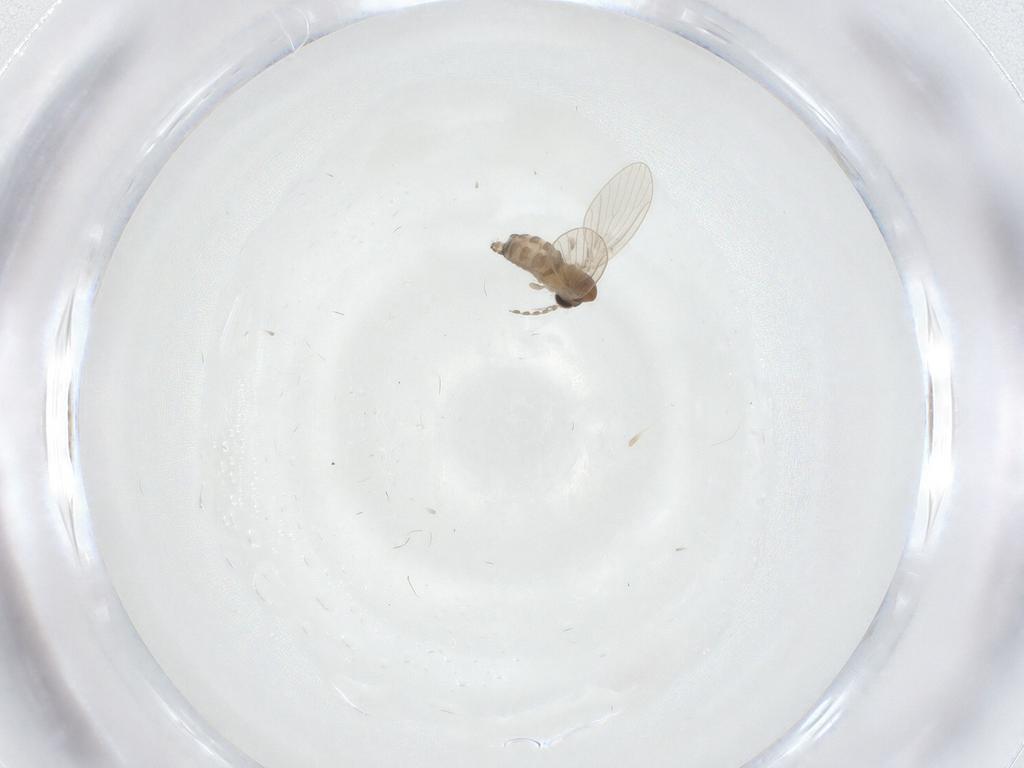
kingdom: Animalia
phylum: Arthropoda
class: Insecta
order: Diptera
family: Psychodidae
